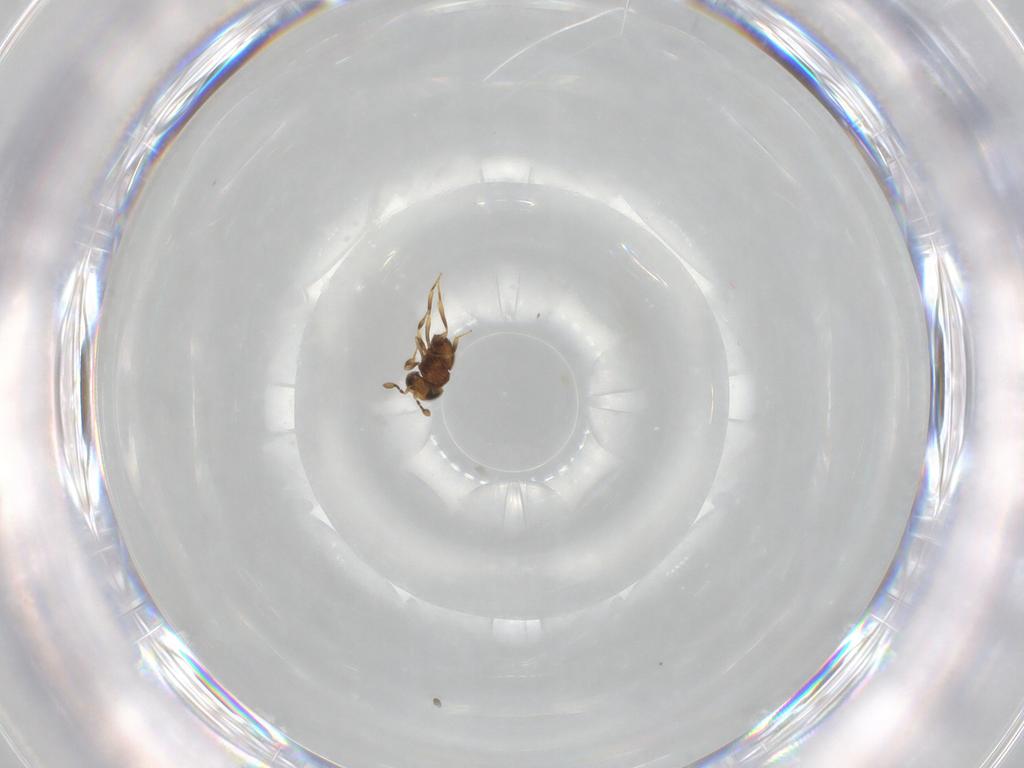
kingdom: Animalia
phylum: Arthropoda
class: Insecta
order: Hymenoptera
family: Scelionidae
